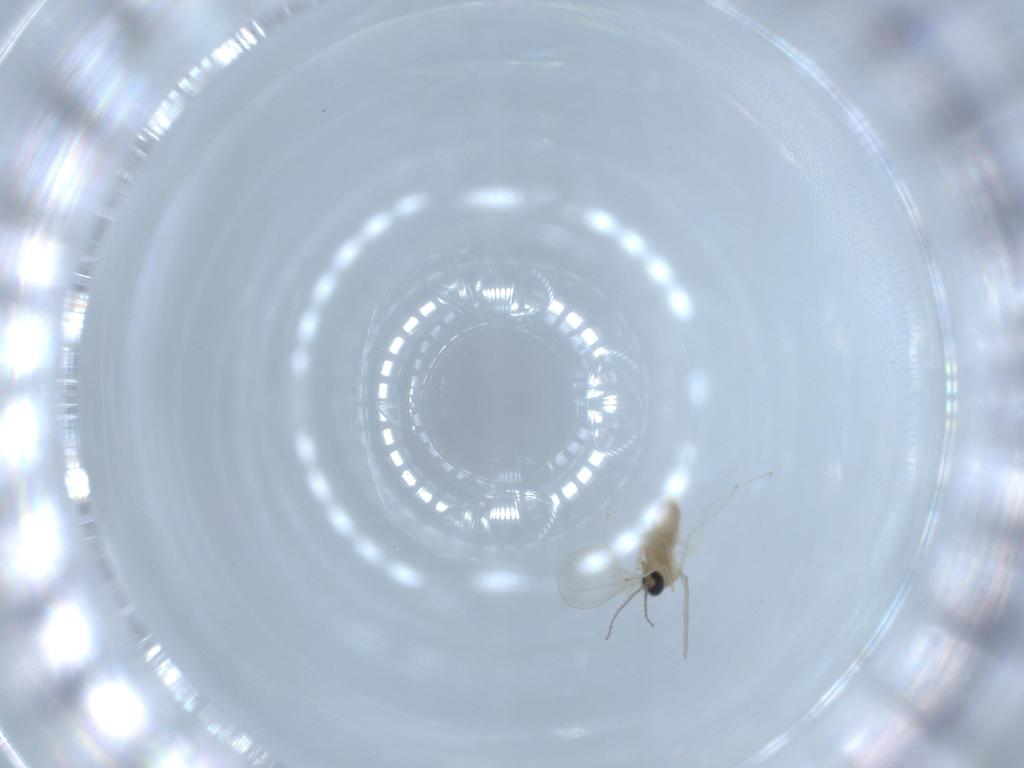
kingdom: Animalia
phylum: Arthropoda
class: Insecta
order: Diptera
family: Cecidomyiidae
